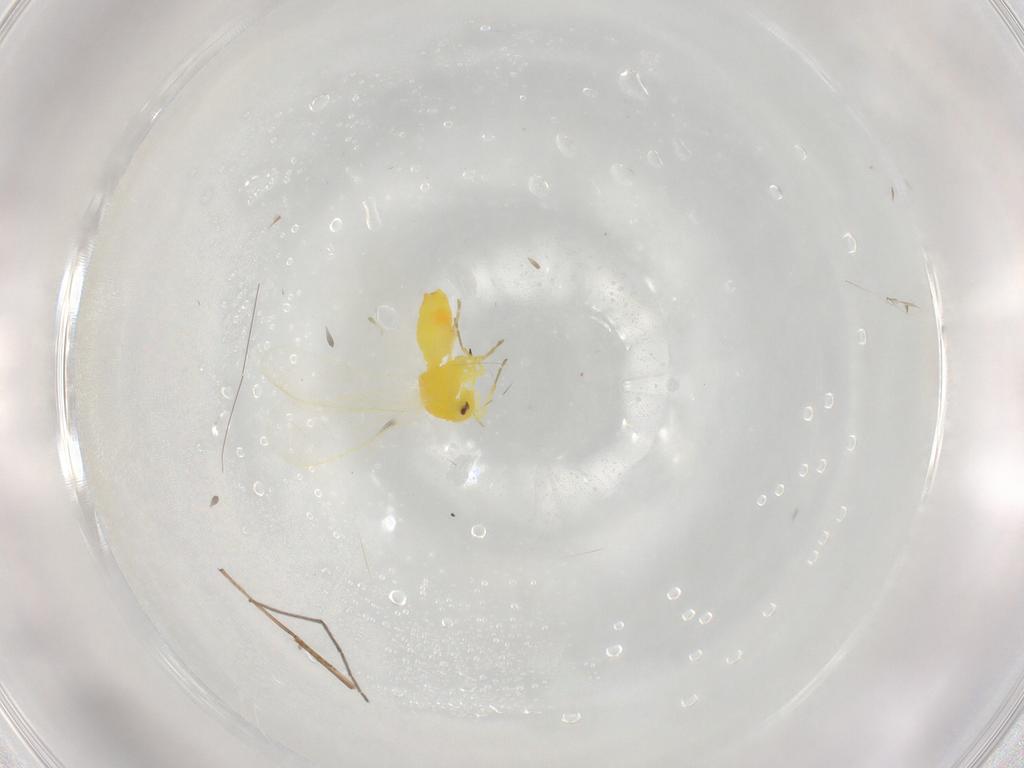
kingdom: Animalia
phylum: Arthropoda
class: Insecta
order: Hemiptera
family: Aleyrodidae
